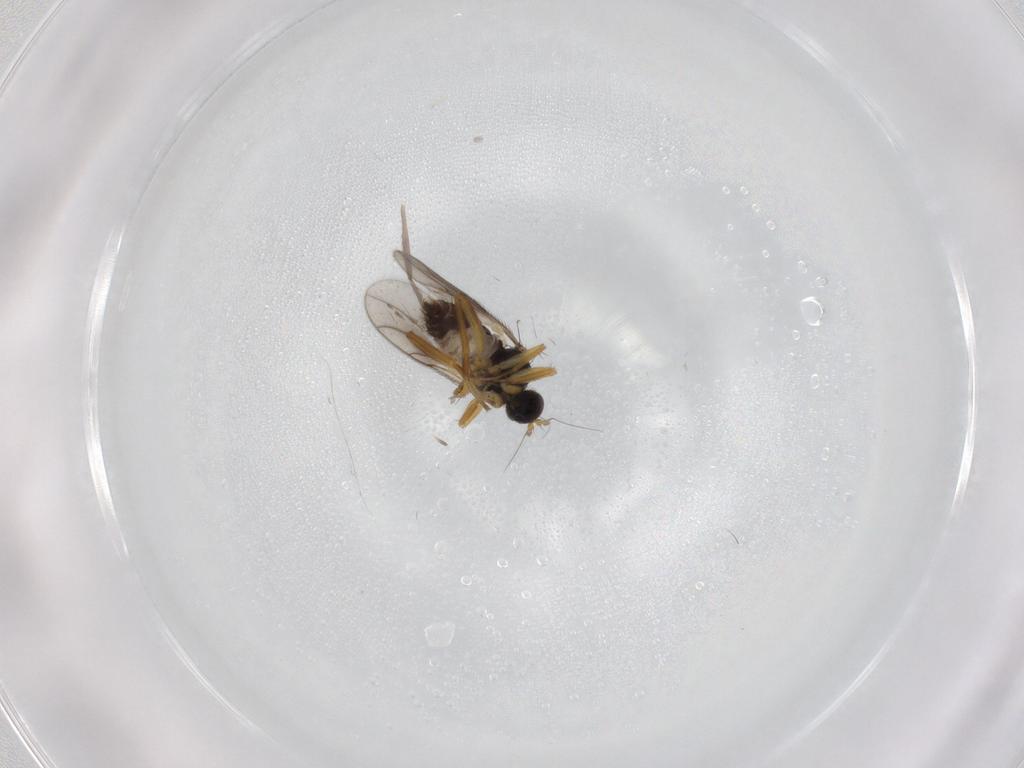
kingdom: Animalia
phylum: Arthropoda
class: Insecta
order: Diptera
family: Hybotidae
